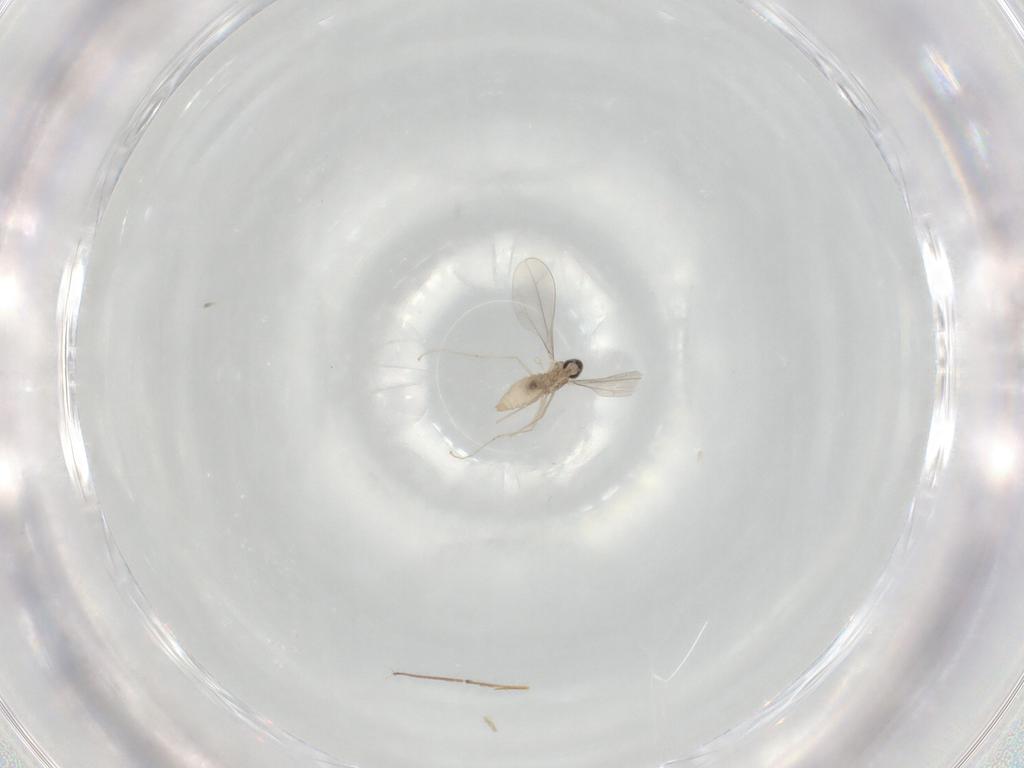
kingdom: Animalia
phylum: Arthropoda
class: Insecta
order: Diptera
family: Cecidomyiidae
